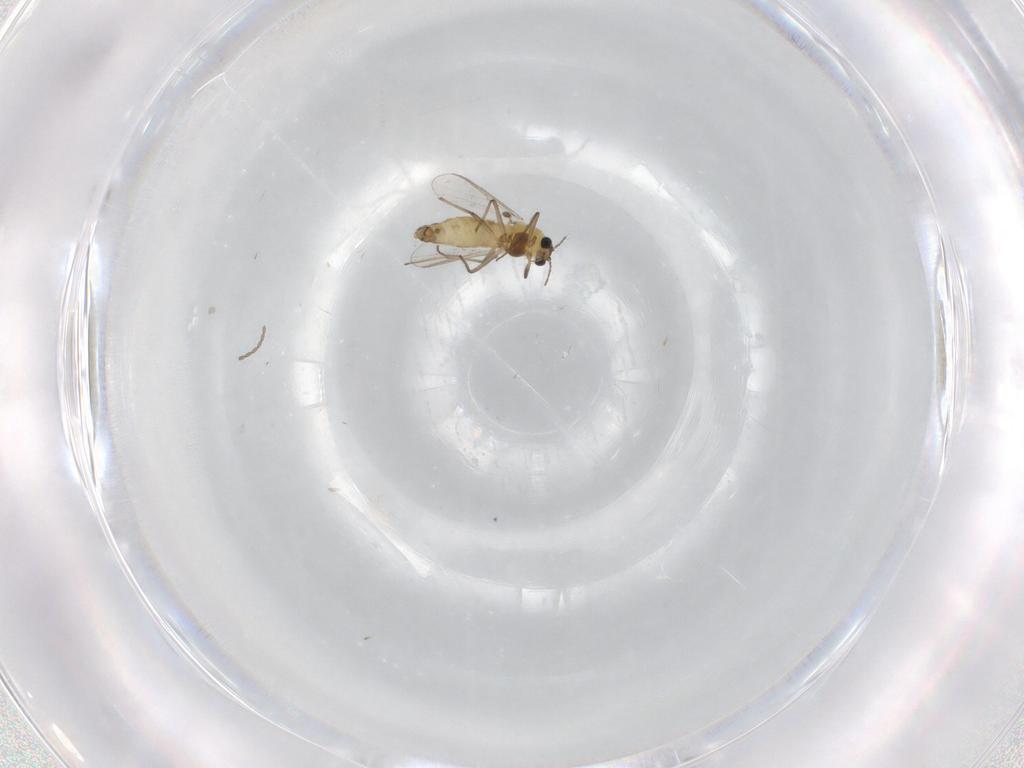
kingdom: Animalia
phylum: Arthropoda
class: Insecta
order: Diptera
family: Chironomidae
